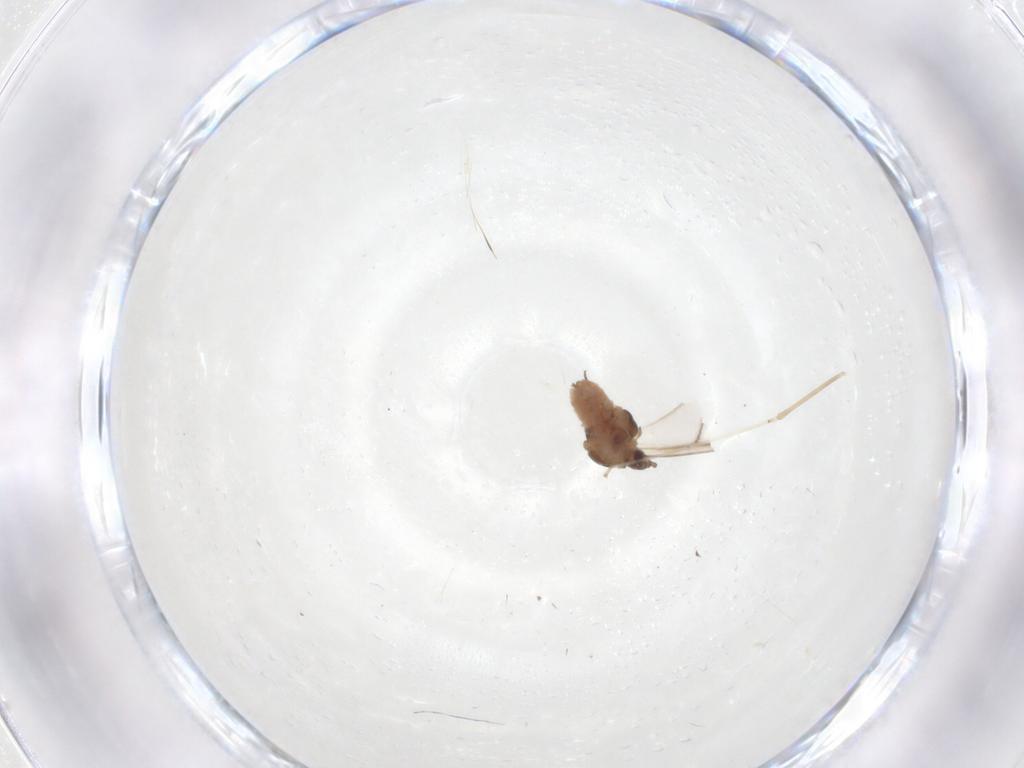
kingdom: Animalia
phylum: Arthropoda
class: Insecta
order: Hemiptera
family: Aphididae
